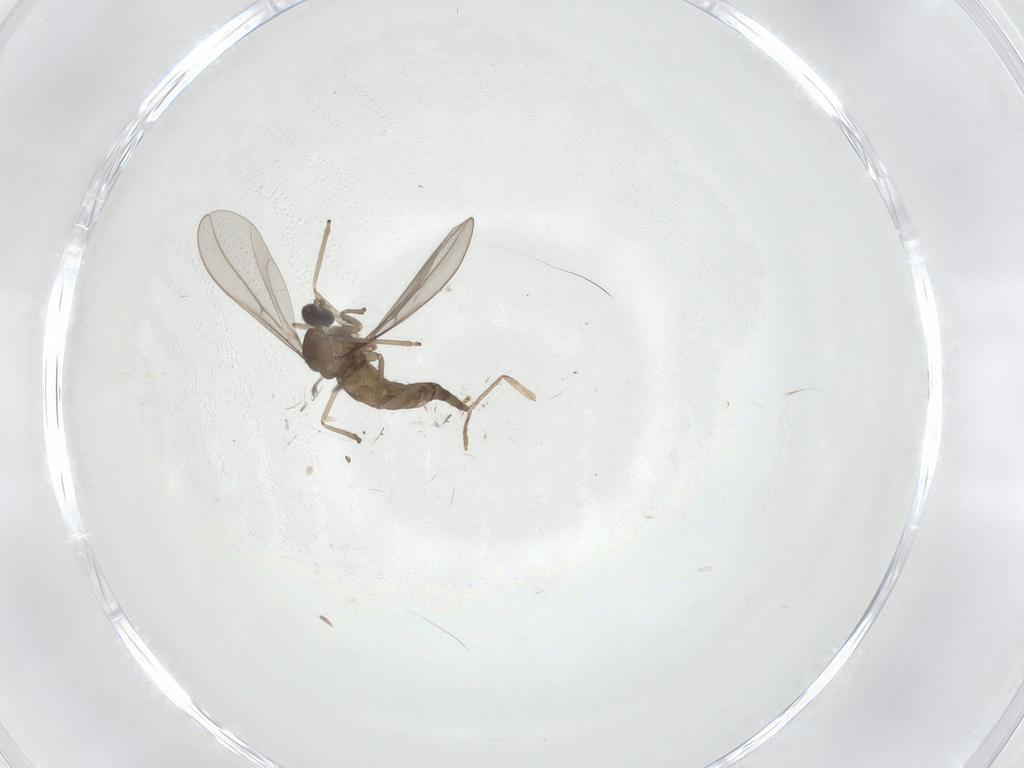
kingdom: Animalia
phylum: Arthropoda
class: Insecta
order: Diptera
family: Psychodidae
